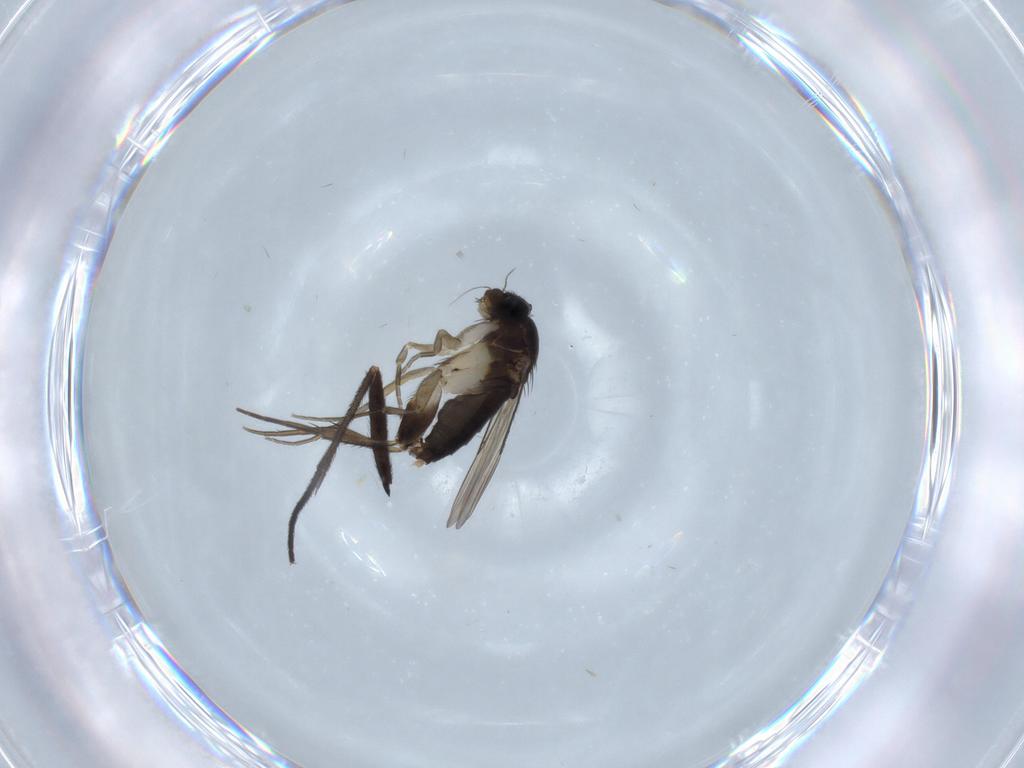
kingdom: Animalia
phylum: Arthropoda
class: Insecta
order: Diptera
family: Phoridae
